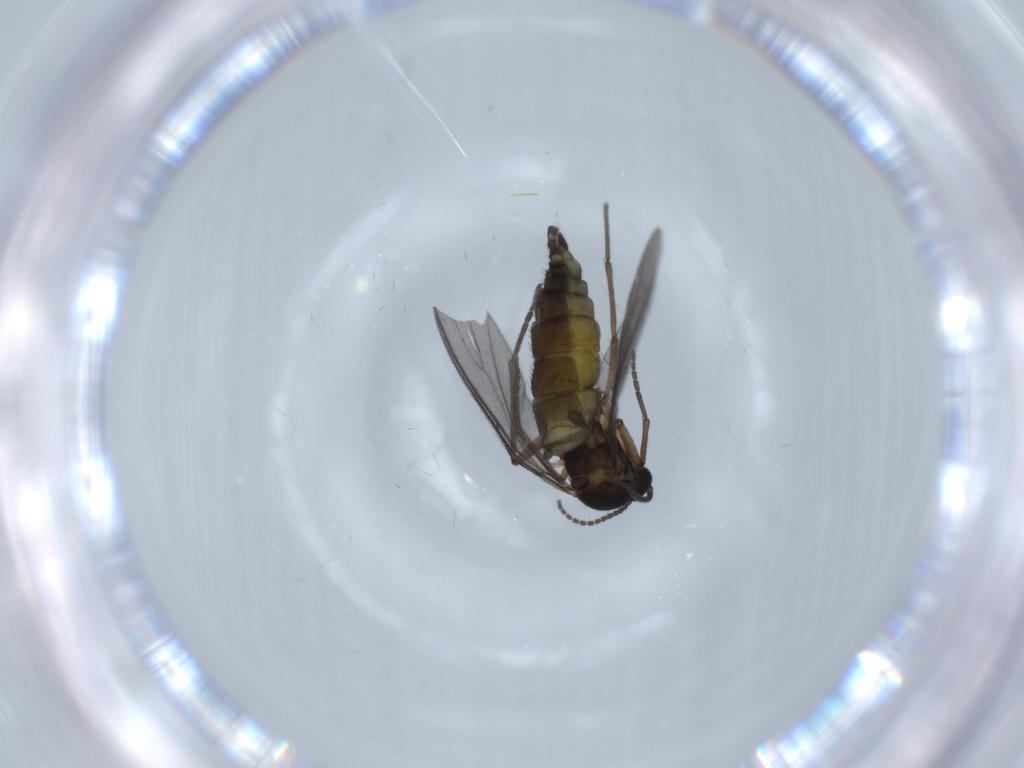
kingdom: Animalia
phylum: Arthropoda
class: Insecta
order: Diptera
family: Sciaridae
